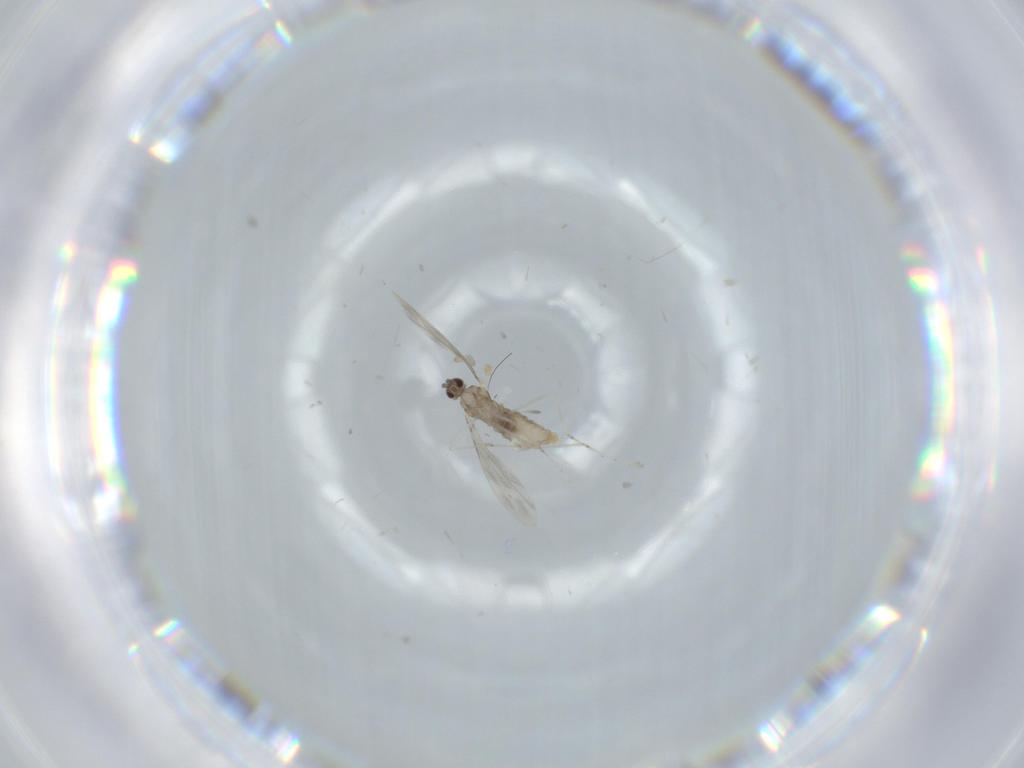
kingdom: Animalia
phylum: Arthropoda
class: Insecta
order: Diptera
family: Cecidomyiidae
